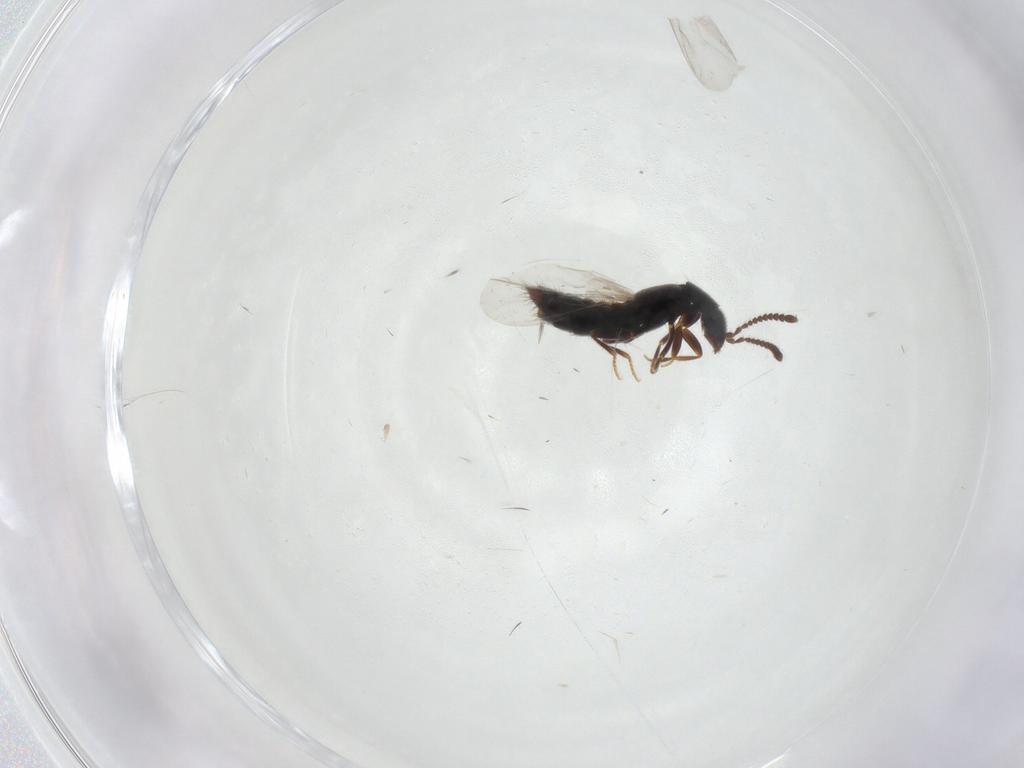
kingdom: Animalia
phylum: Arthropoda
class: Insecta
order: Coleoptera
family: Staphylinidae
